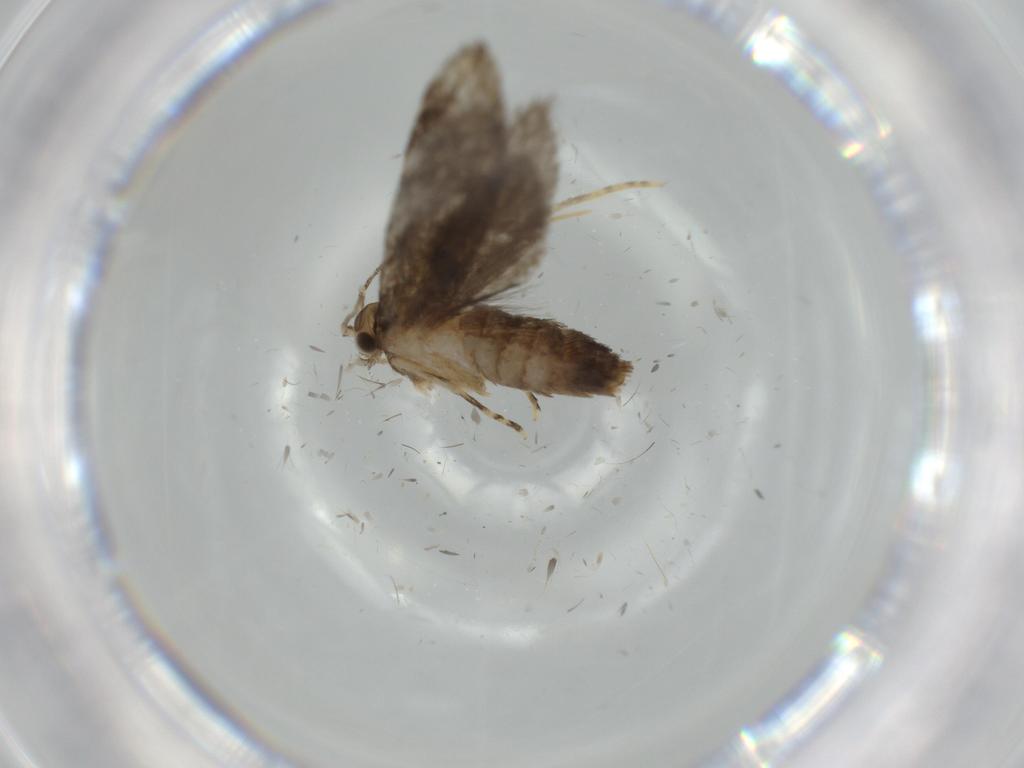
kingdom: Animalia
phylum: Arthropoda
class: Insecta
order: Lepidoptera
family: Tineidae
